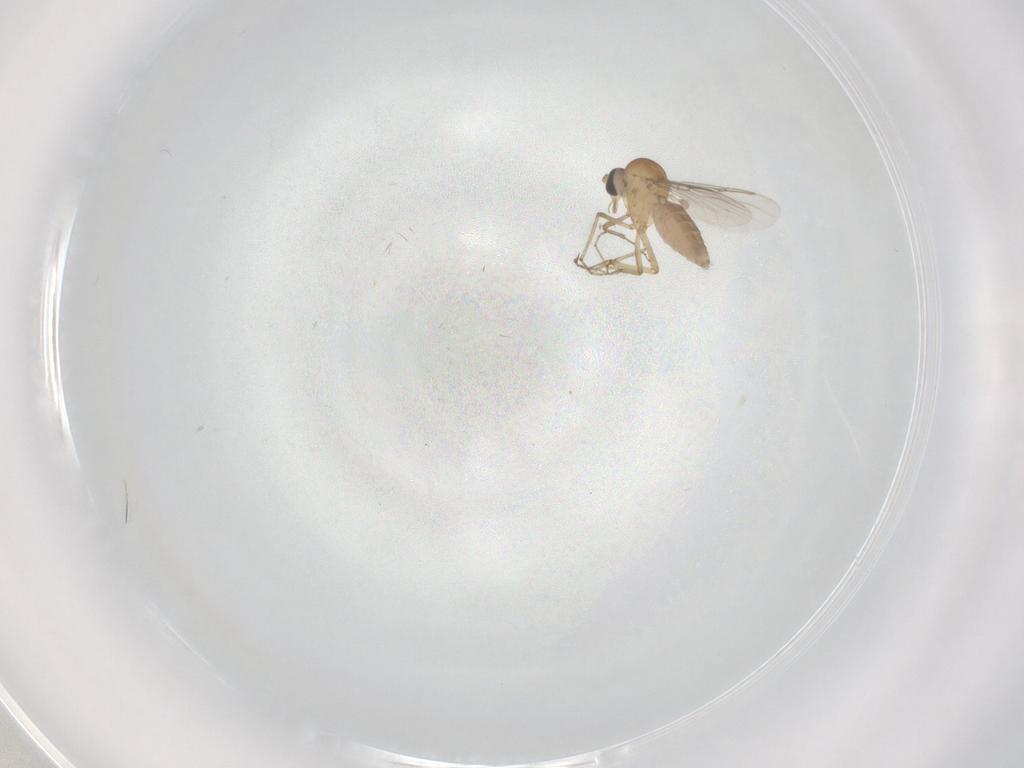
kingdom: Animalia
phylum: Arthropoda
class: Insecta
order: Diptera
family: Ceratopogonidae
